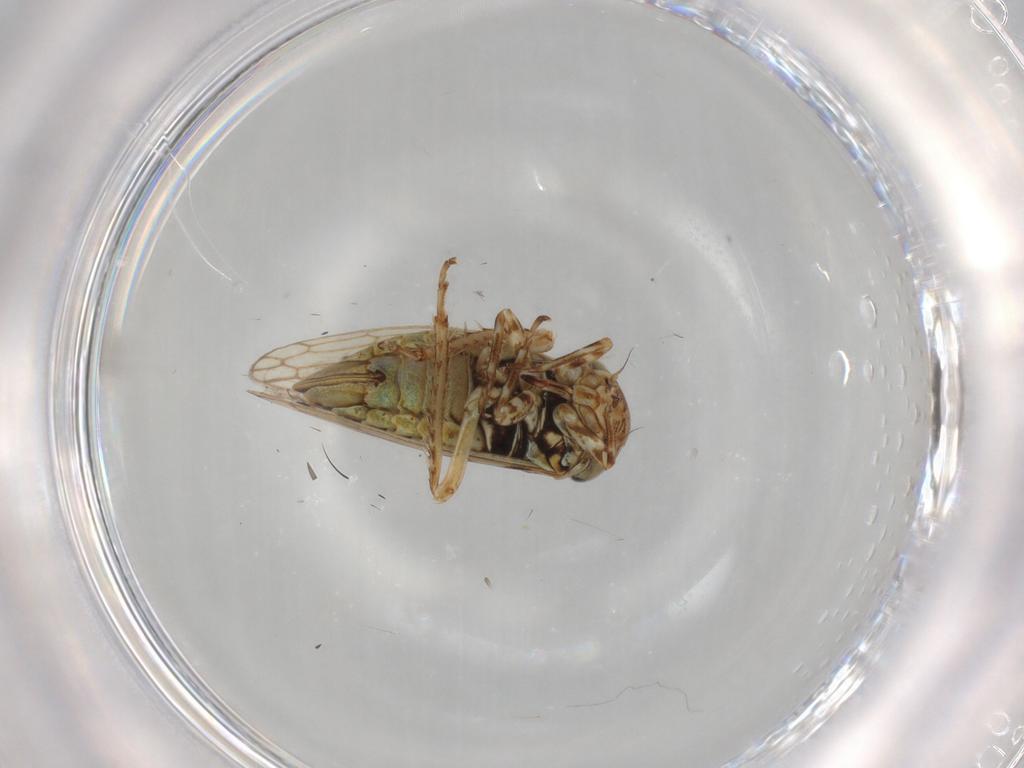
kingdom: Animalia
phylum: Arthropoda
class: Insecta
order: Hemiptera
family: Cicadellidae
